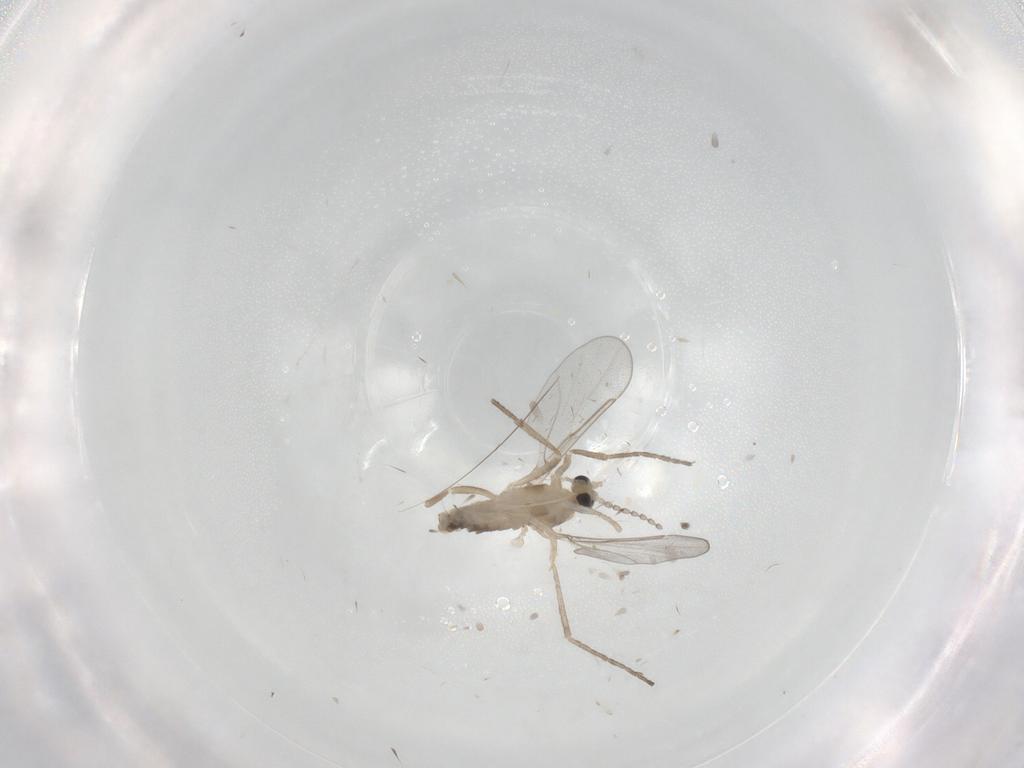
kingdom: Animalia
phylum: Arthropoda
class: Insecta
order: Diptera
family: Cecidomyiidae
